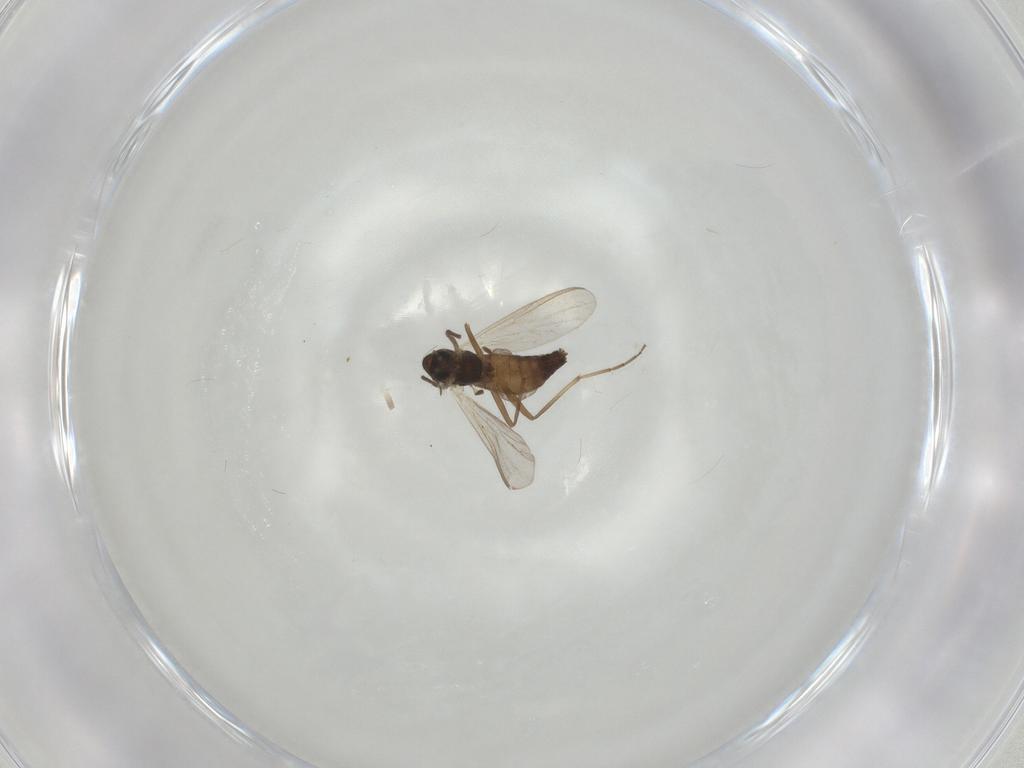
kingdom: Animalia
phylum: Arthropoda
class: Insecta
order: Diptera
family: Chironomidae
